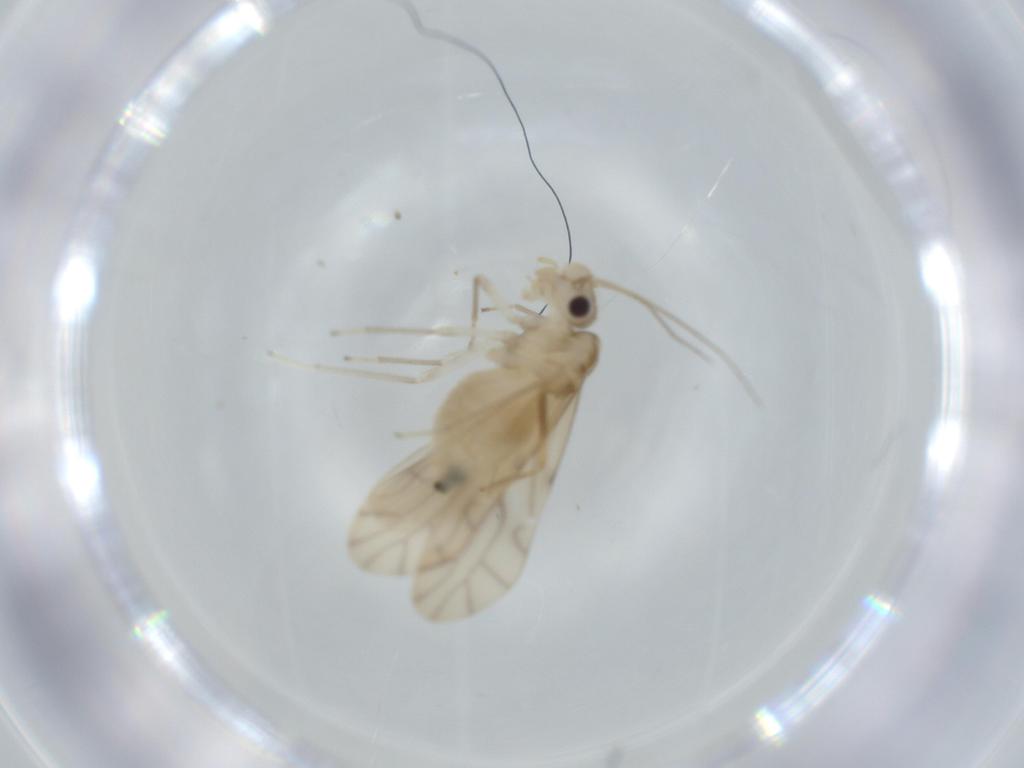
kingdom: Animalia
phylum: Arthropoda
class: Insecta
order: Psocodea
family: Caeciliusidae
